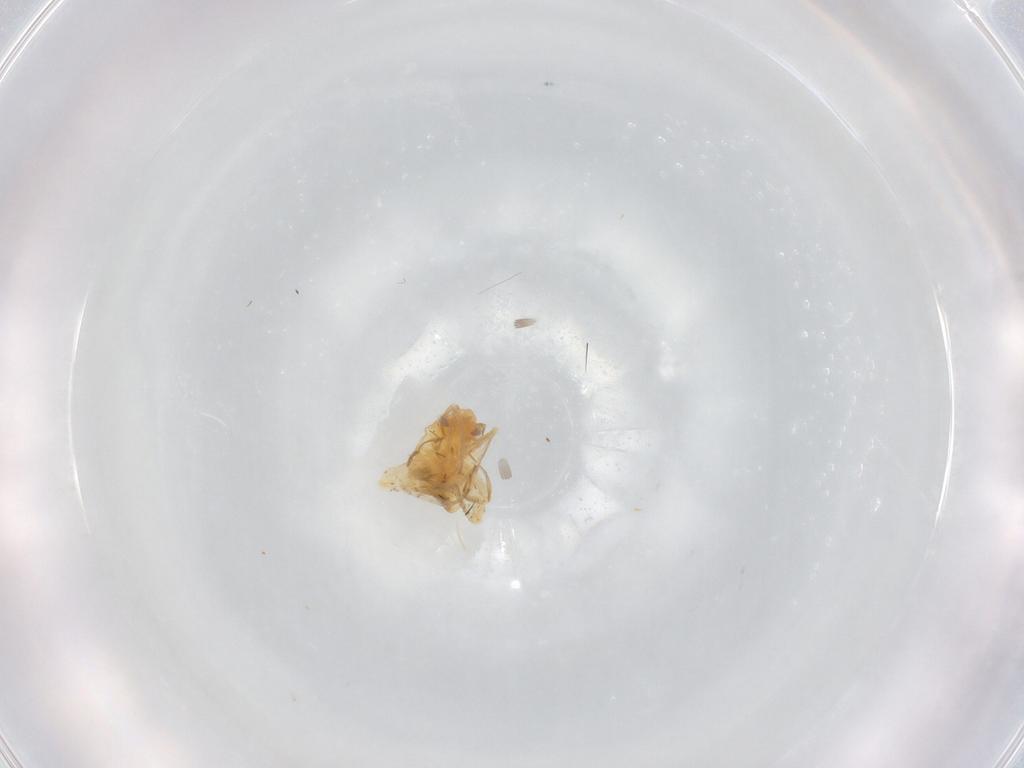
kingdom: Animalia
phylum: Arthropoda
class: Insecta
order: Hemiptera
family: Miridae
